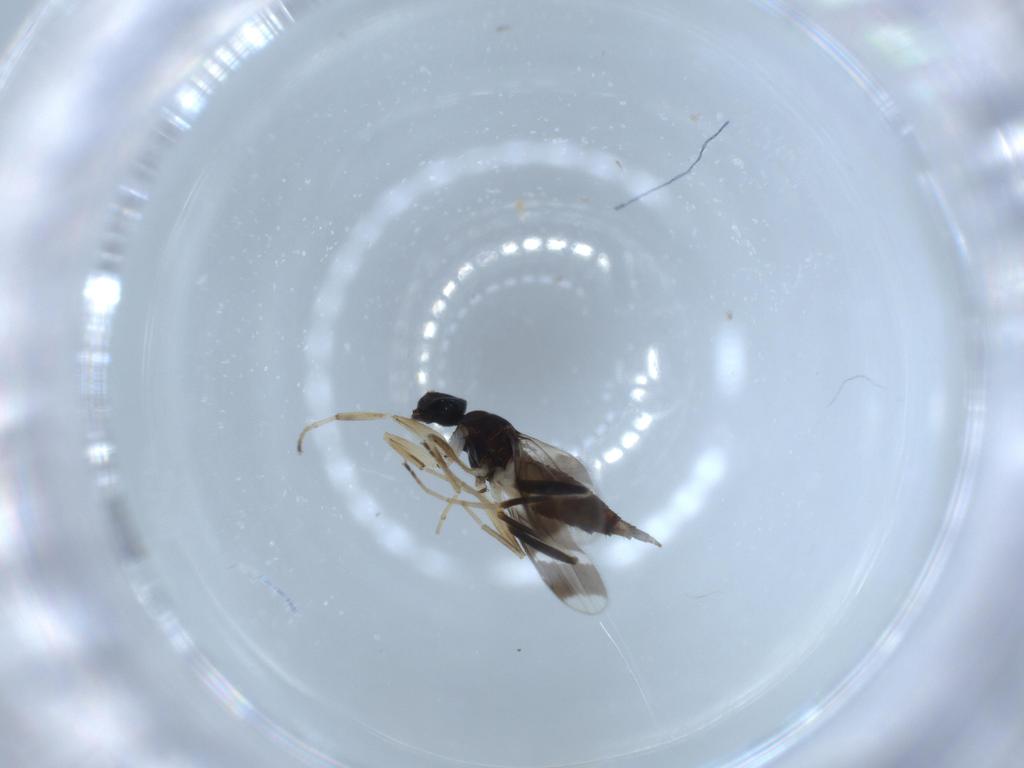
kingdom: Animalia
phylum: Arthropoda
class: Insecta
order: Diptera
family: Hybotidae
